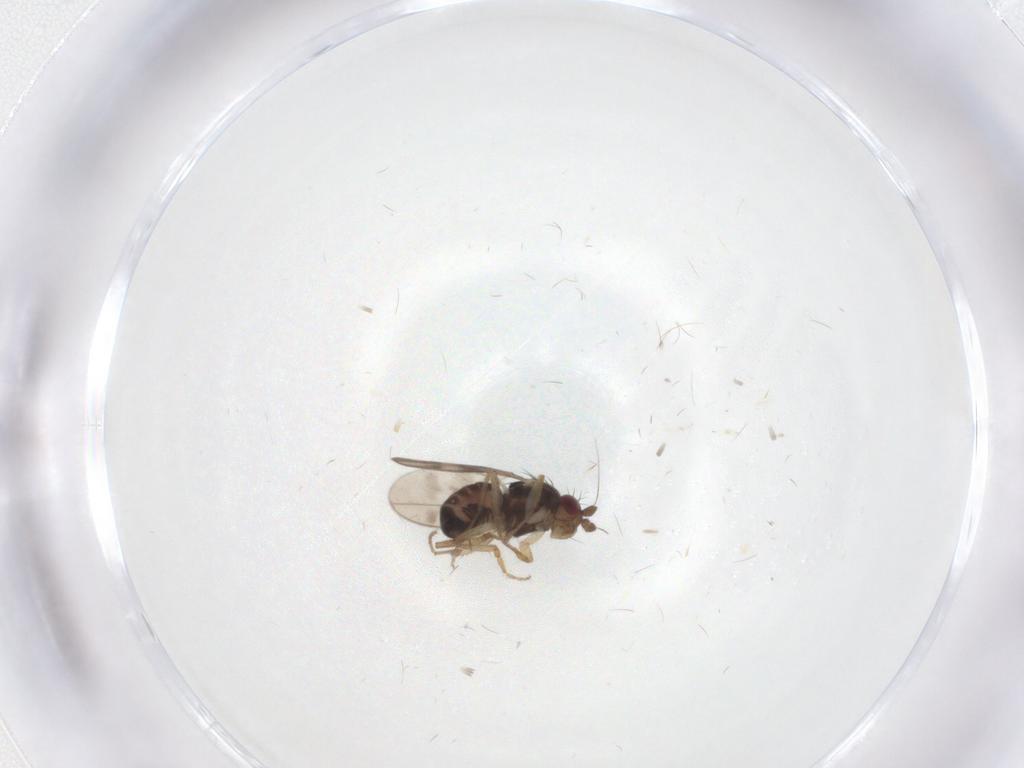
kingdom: Animalia
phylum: Arthropoda
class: Insecta
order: Diptera
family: Sphaeroceridae
